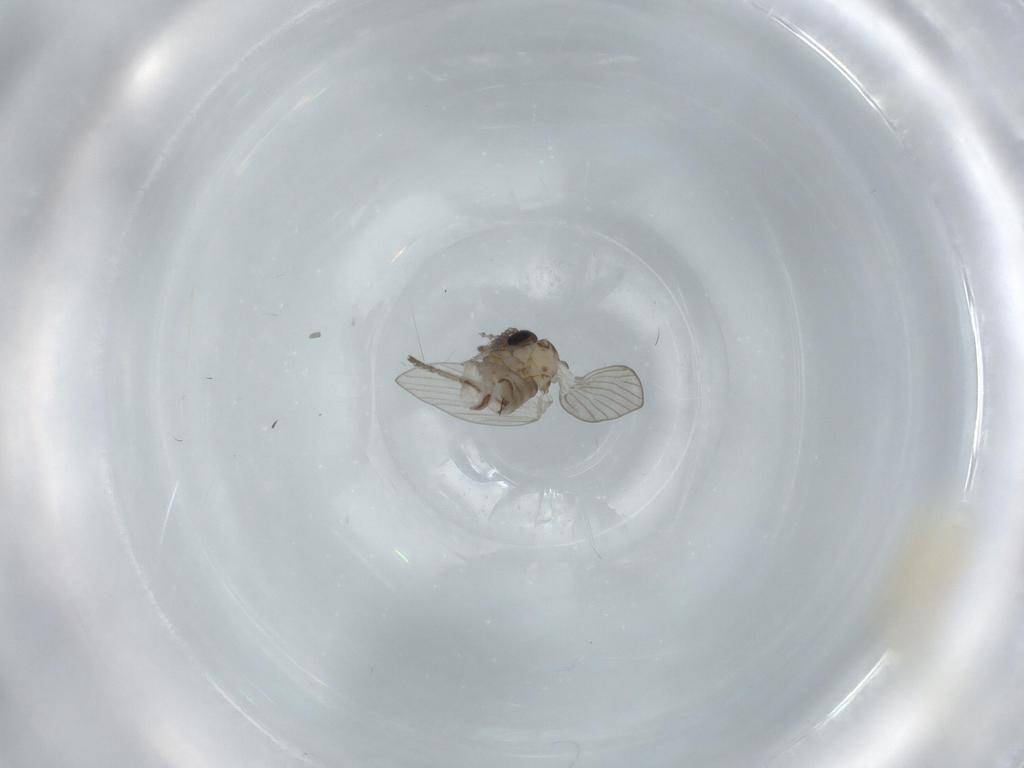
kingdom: Animalia
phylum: Arthropoda
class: Insecta
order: Diptera
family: Psychodidae
